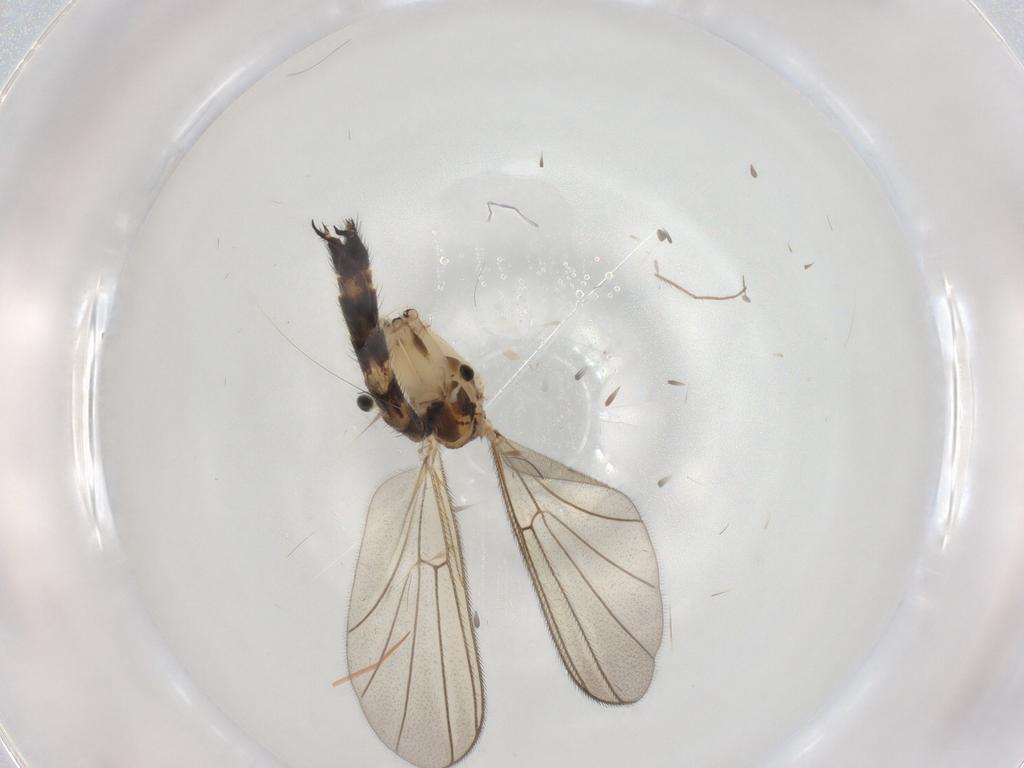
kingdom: Animalia
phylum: Arthropoda
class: Insecta
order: Diptera
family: Chironomidae
